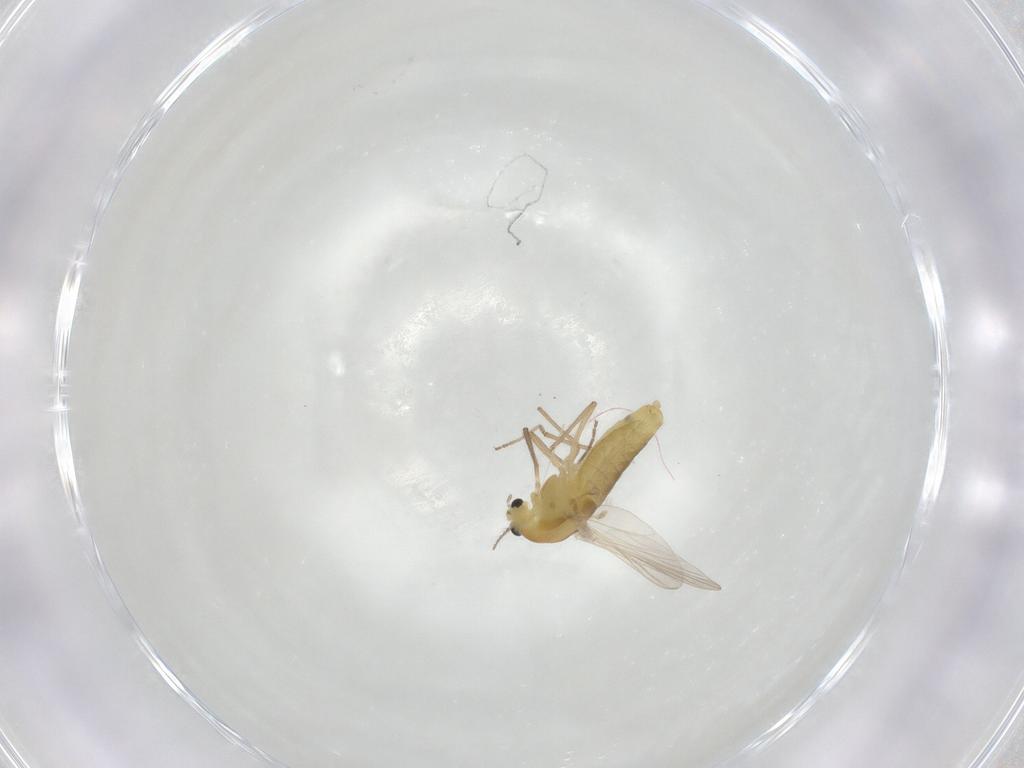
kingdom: Animalia
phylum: Arthropoda
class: Insecta
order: Diptera
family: Chironomidae
